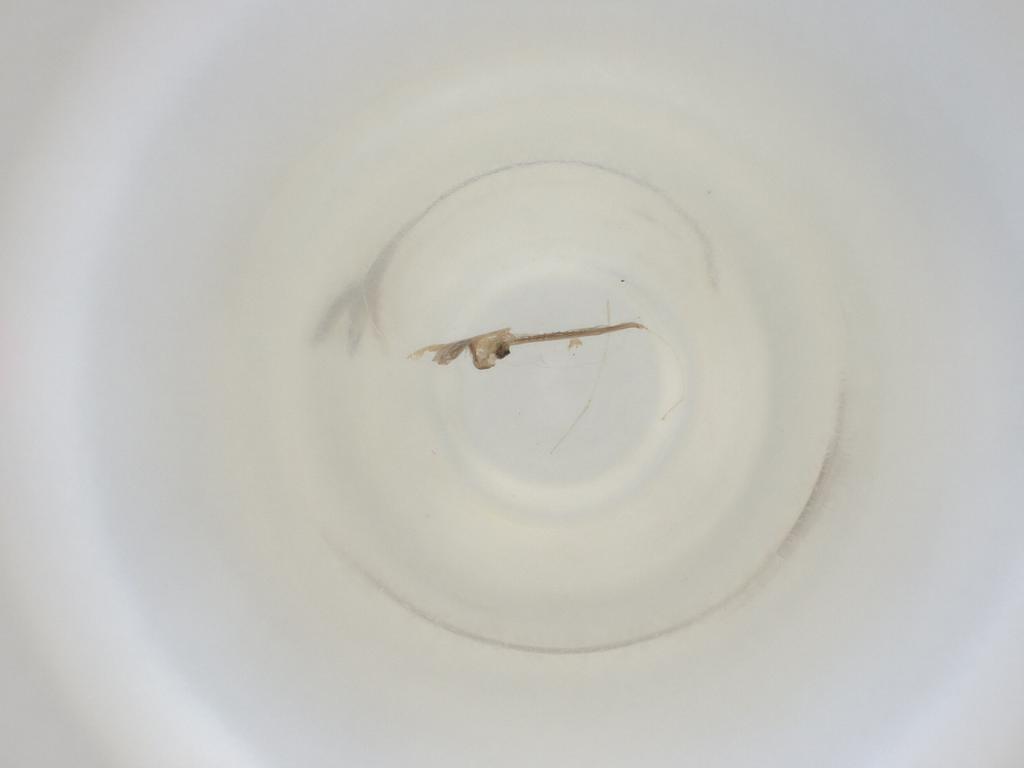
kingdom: Animalia
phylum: Arthropoda
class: Insecta
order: Diptera
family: Cecidomyiidae
